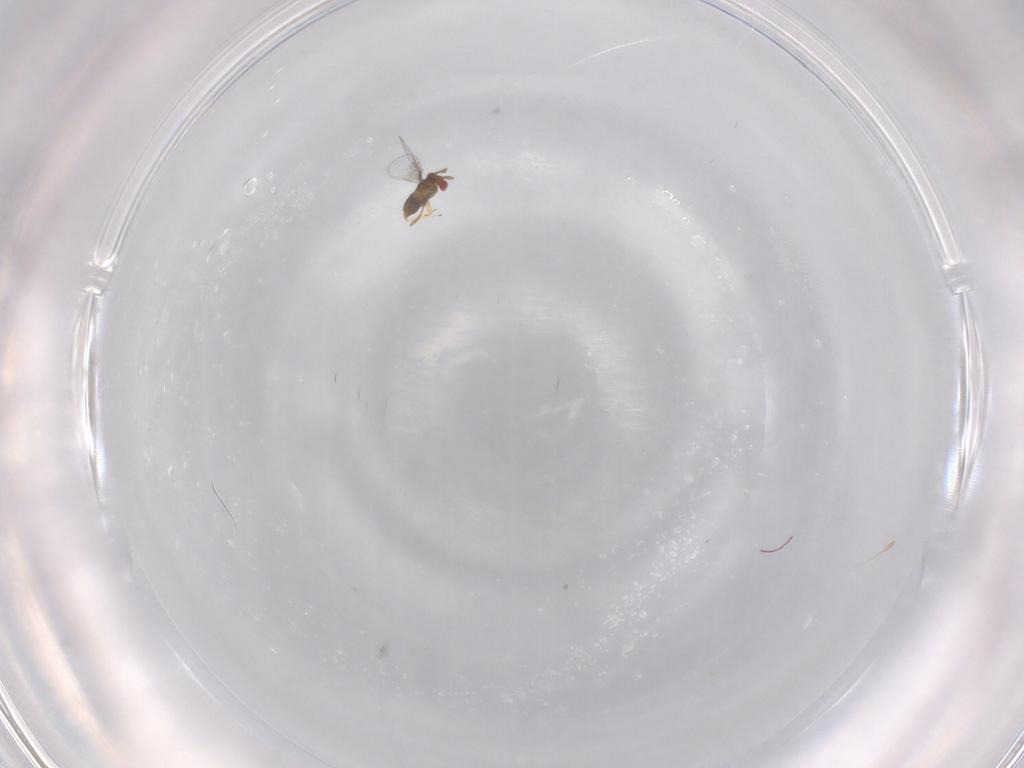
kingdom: Animalia
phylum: Arthropoda
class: Insecta
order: Hymenoptera
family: Trichogrammatidae
